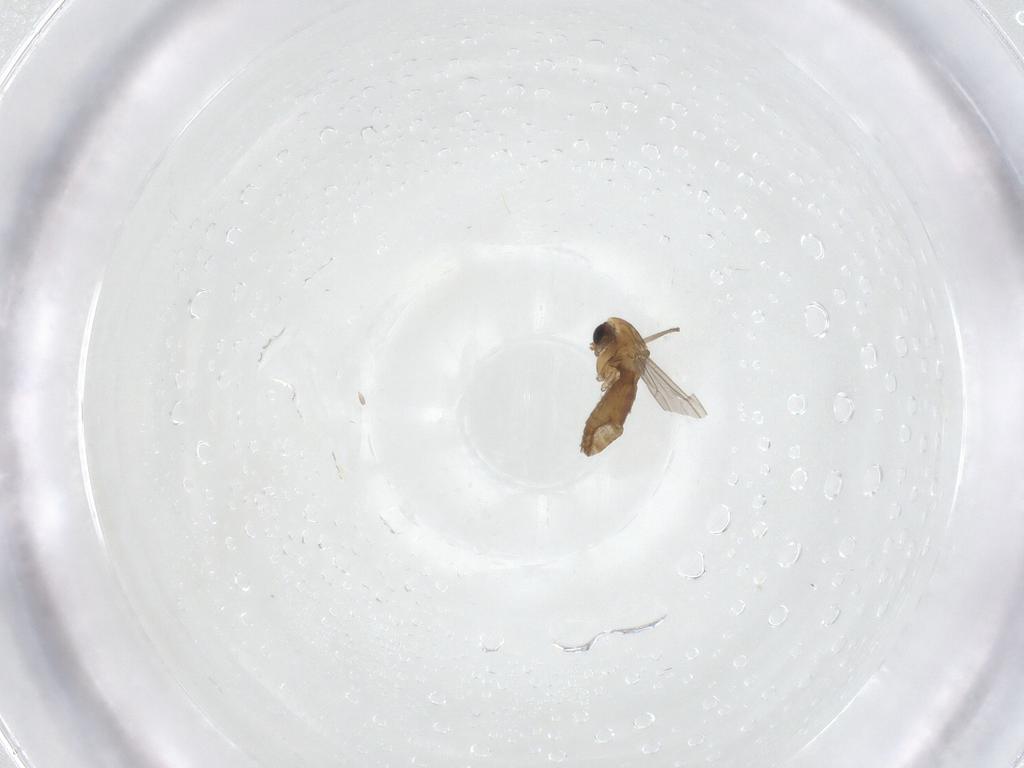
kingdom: Animalia
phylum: Arthropoda
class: Insecta
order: Diptera
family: Chironomidae
